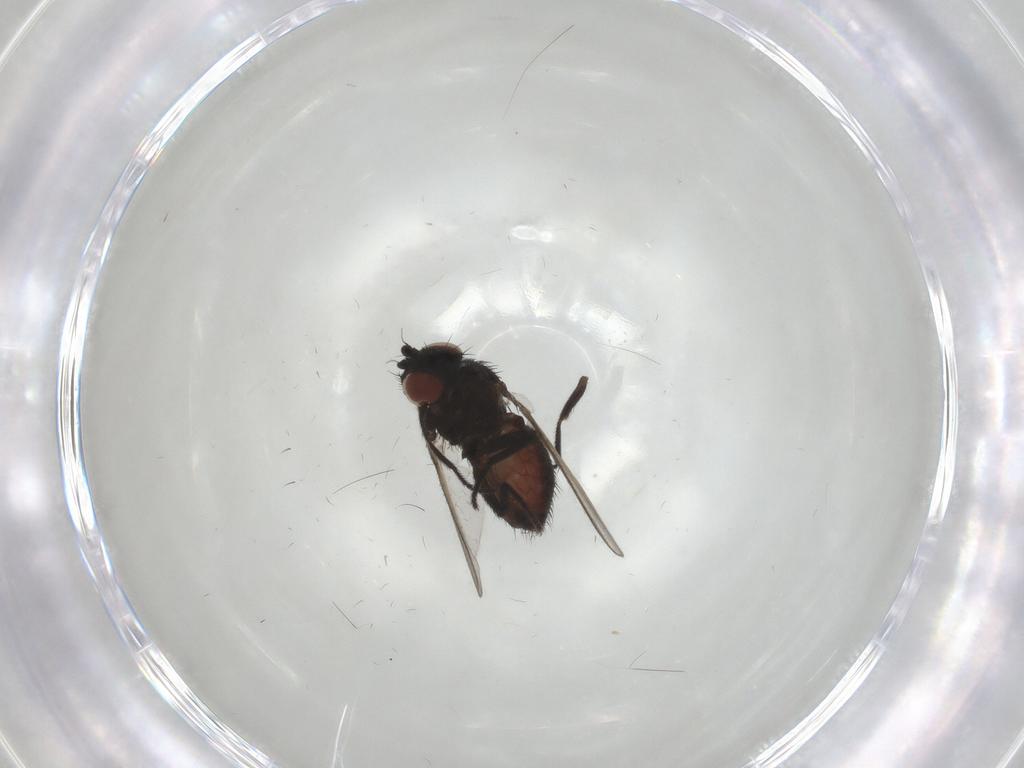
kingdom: Animalia
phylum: Arthropoda
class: Insecta
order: Diptera
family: Milichiidae
